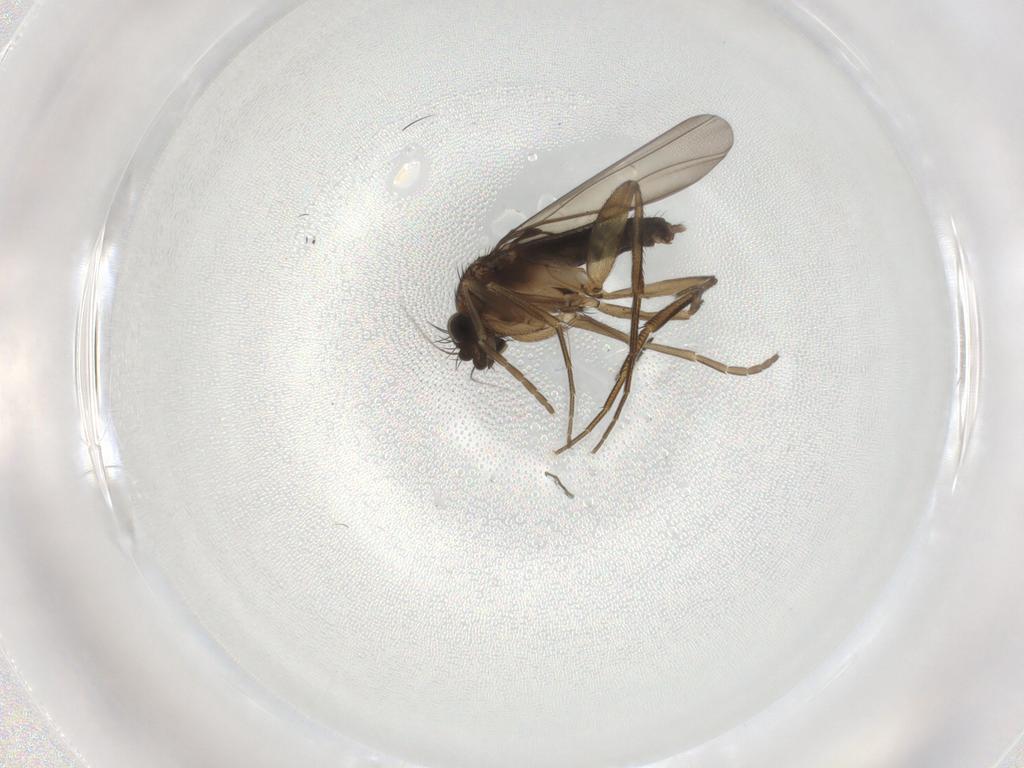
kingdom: Animalia
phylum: Arthropoda
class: Insecta
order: Diptera
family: Phoridae
